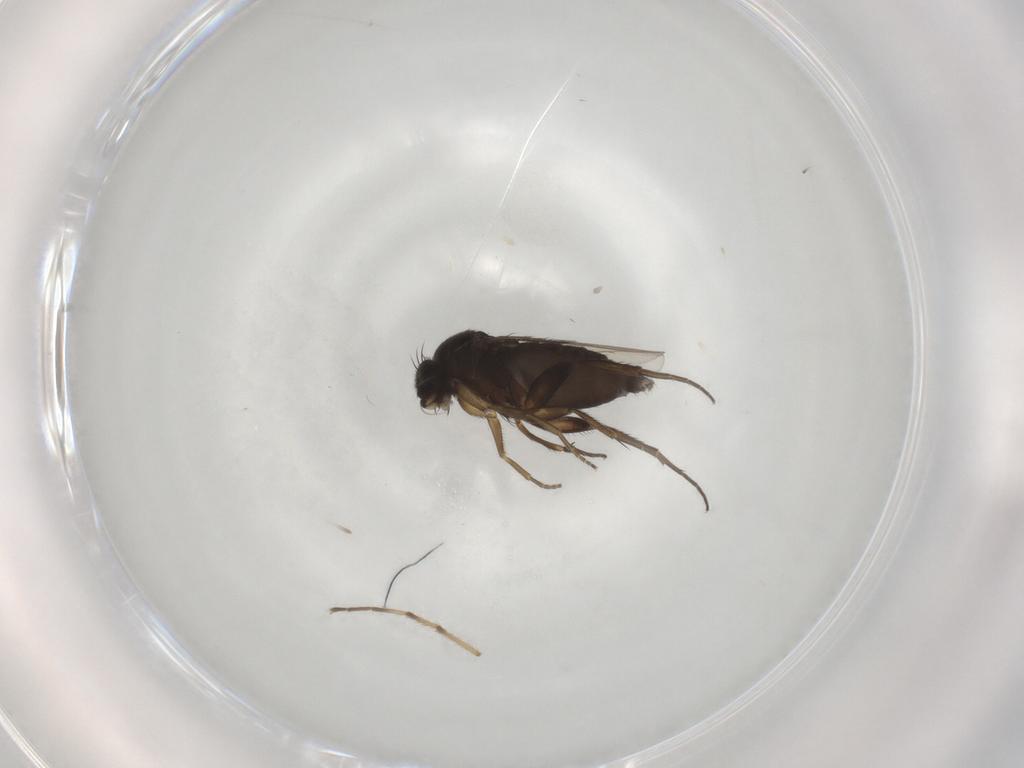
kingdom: Animalia
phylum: Arthropoda
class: Insecta
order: Diptera
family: Phoridae
